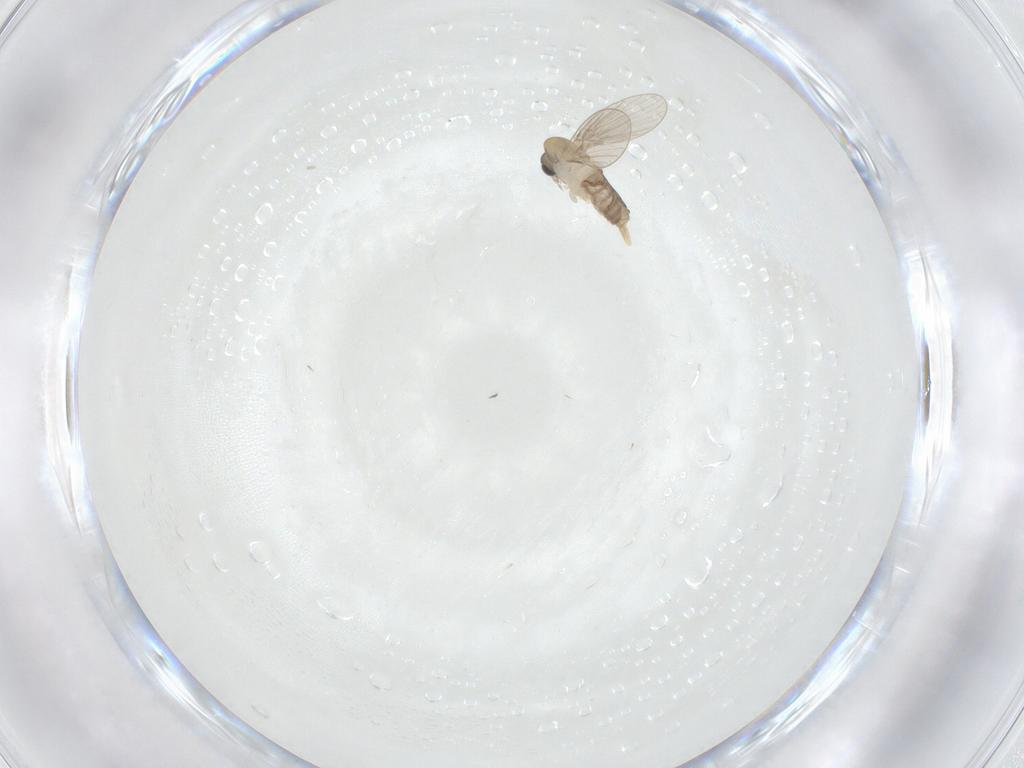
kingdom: Animalia
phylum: Arthropoda
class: Insecta
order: Diptera
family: Psychodidae
